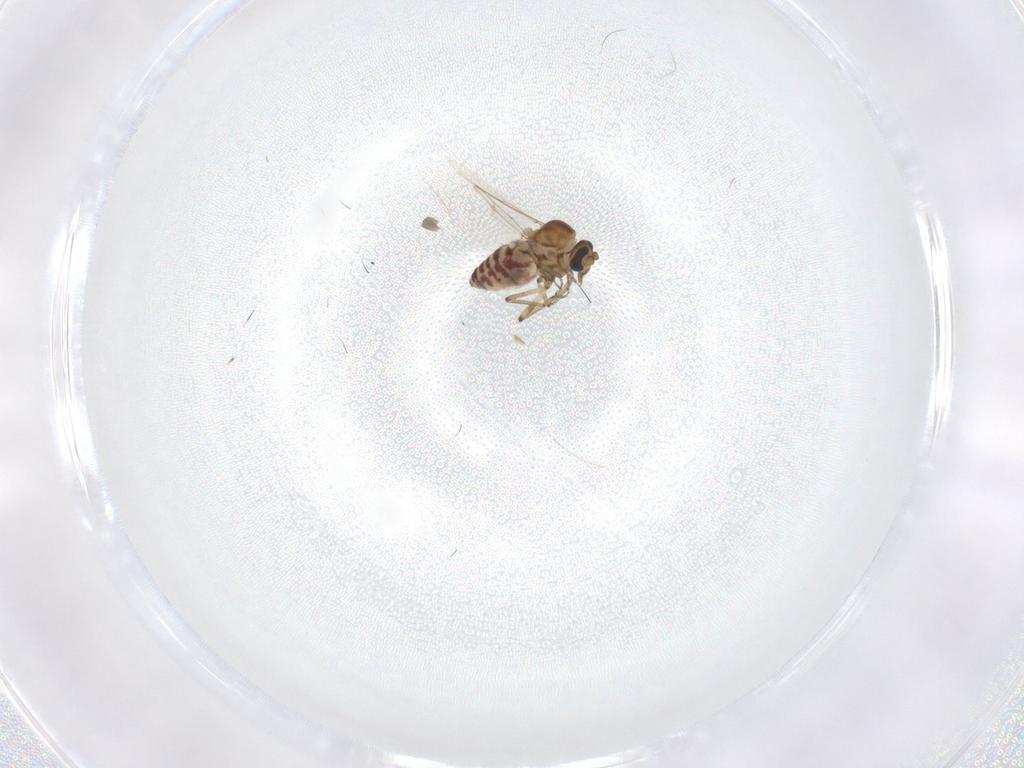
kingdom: Animalia
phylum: Arthropoda
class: Insecta
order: Diptera
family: Ceratopogonidae
